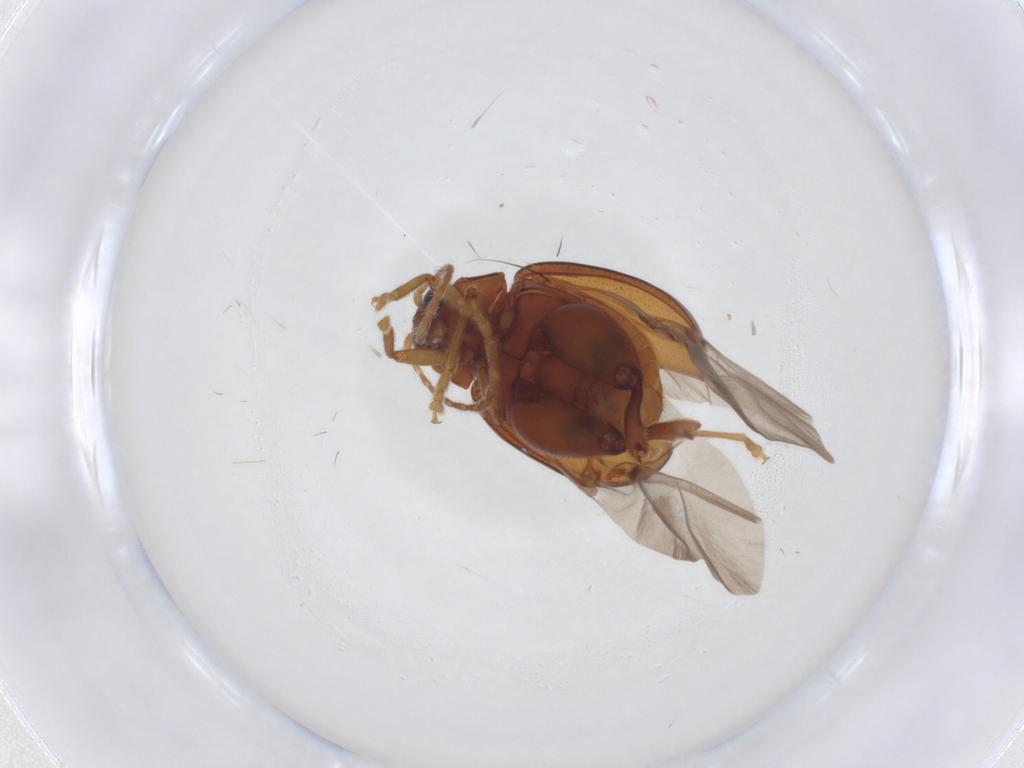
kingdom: Animalia
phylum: Arthropoda
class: Insecta
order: Coleoptera
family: Chrysomelidae
